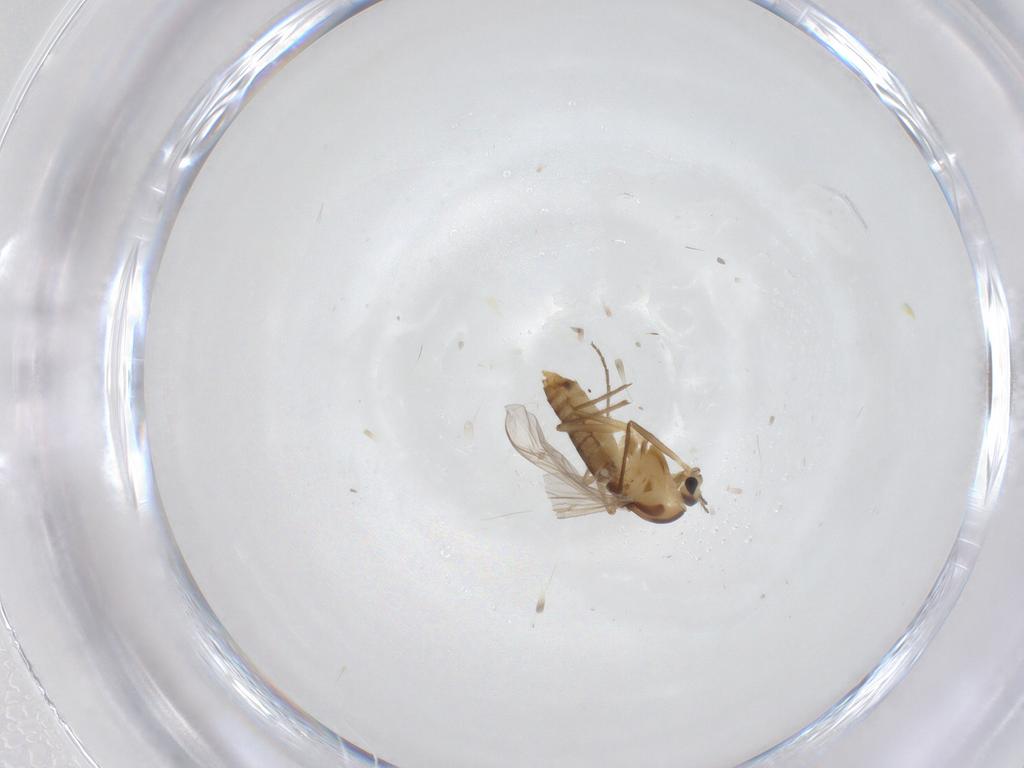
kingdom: Animalia
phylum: Arthropoda
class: Insecta
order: Diptera
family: Chironomidae
